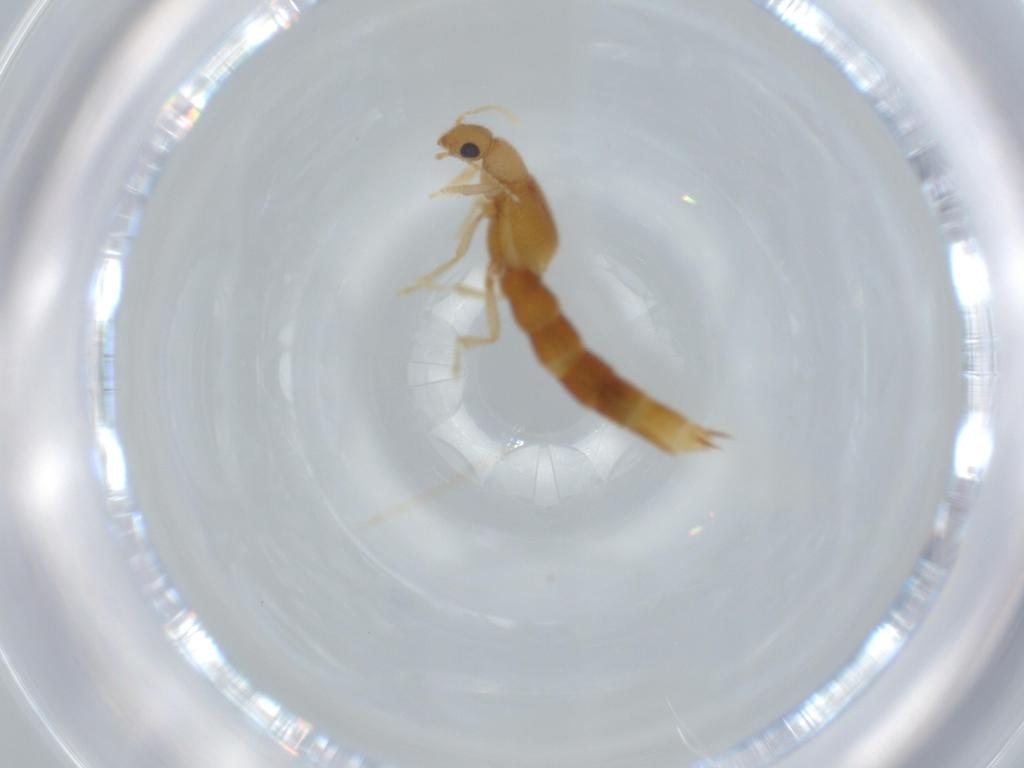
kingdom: Animalia
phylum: Arthropoda
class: Insecta
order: Coleoptera
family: Staphylinidae
